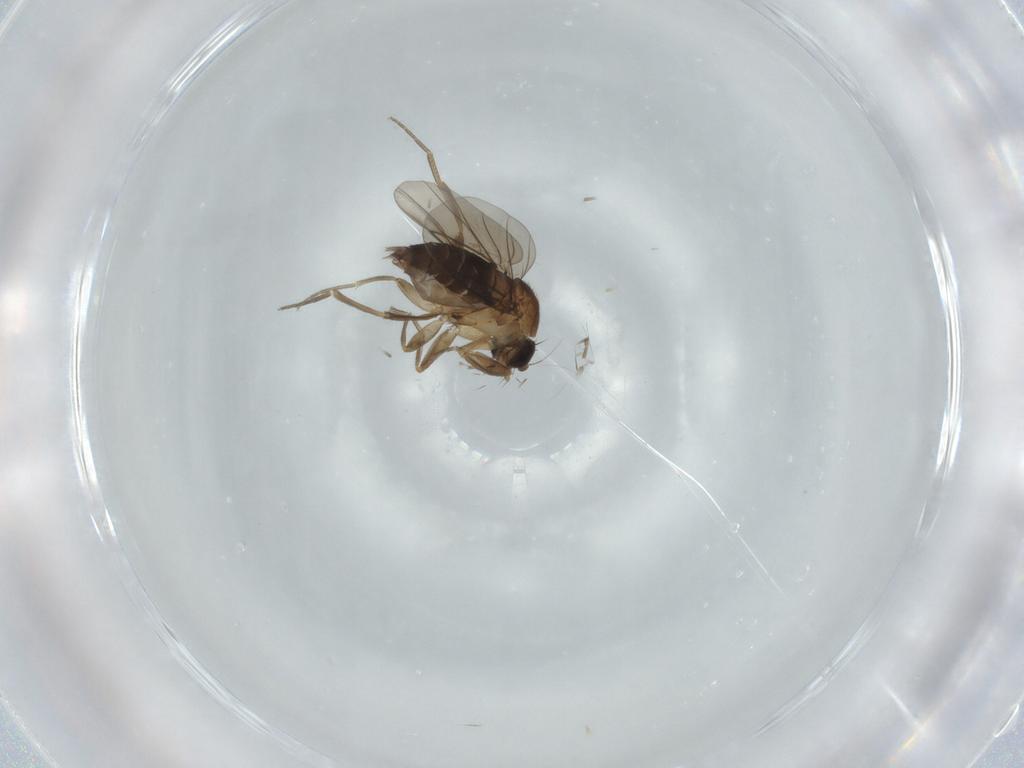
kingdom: Animalia
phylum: Arthropoda
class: Insecta
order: Diptera
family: Phoridae
